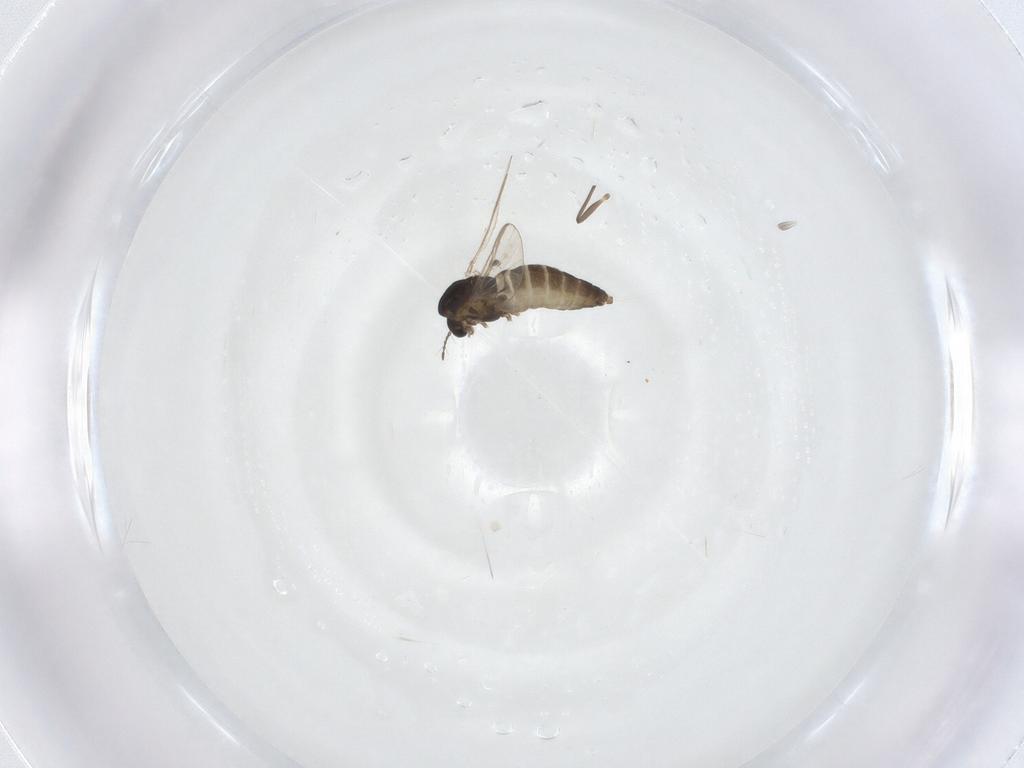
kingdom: Animalia
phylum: Arthropoda
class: Insecta
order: Diptera
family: Chironomidae
